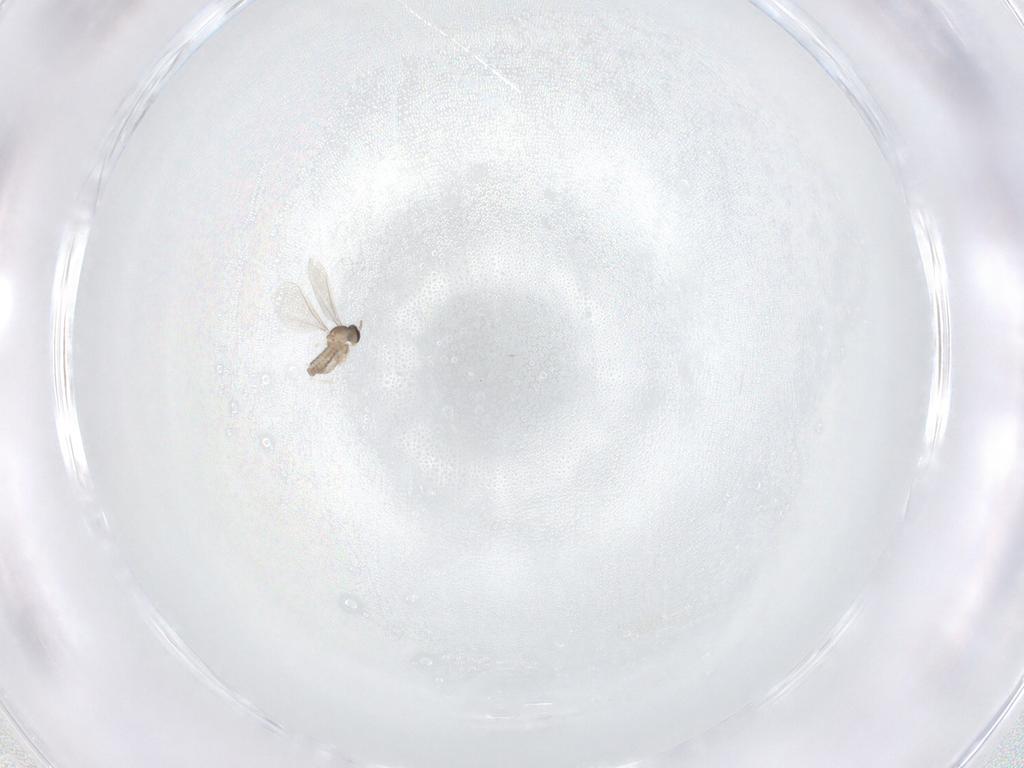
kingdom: Animalia
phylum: Arthropoda
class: Insecta
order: Diptera
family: Cecidomyiidae
